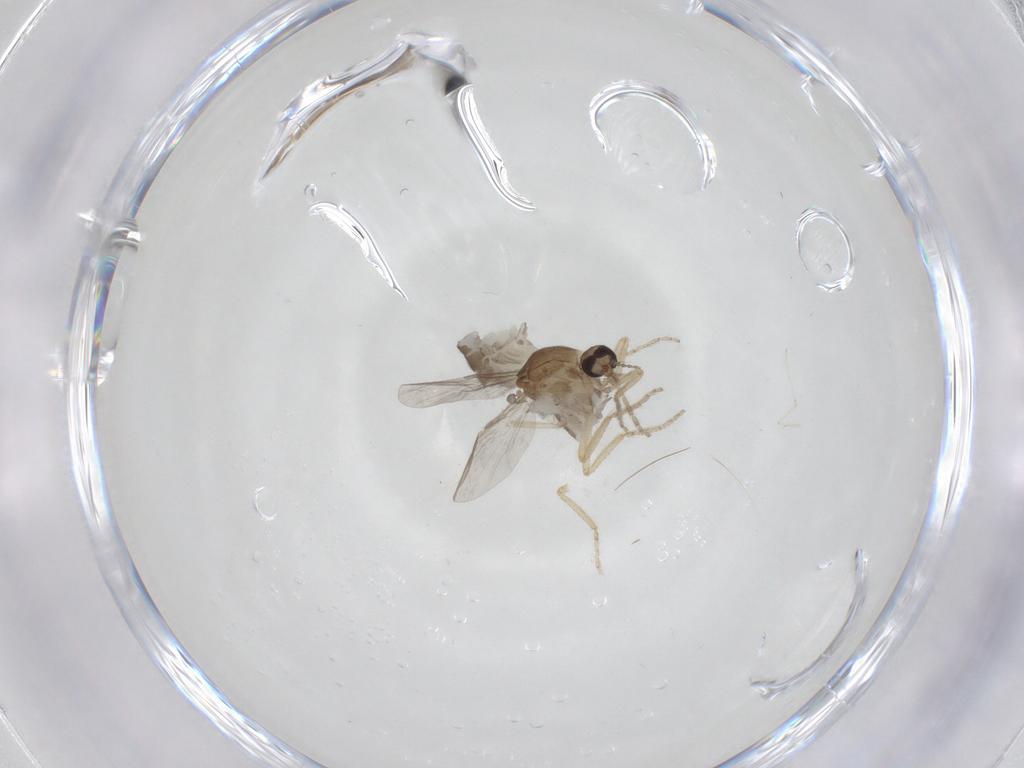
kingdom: Animalia
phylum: Arthropoda
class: Insecta
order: Diptera
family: Ceratopogonidae
